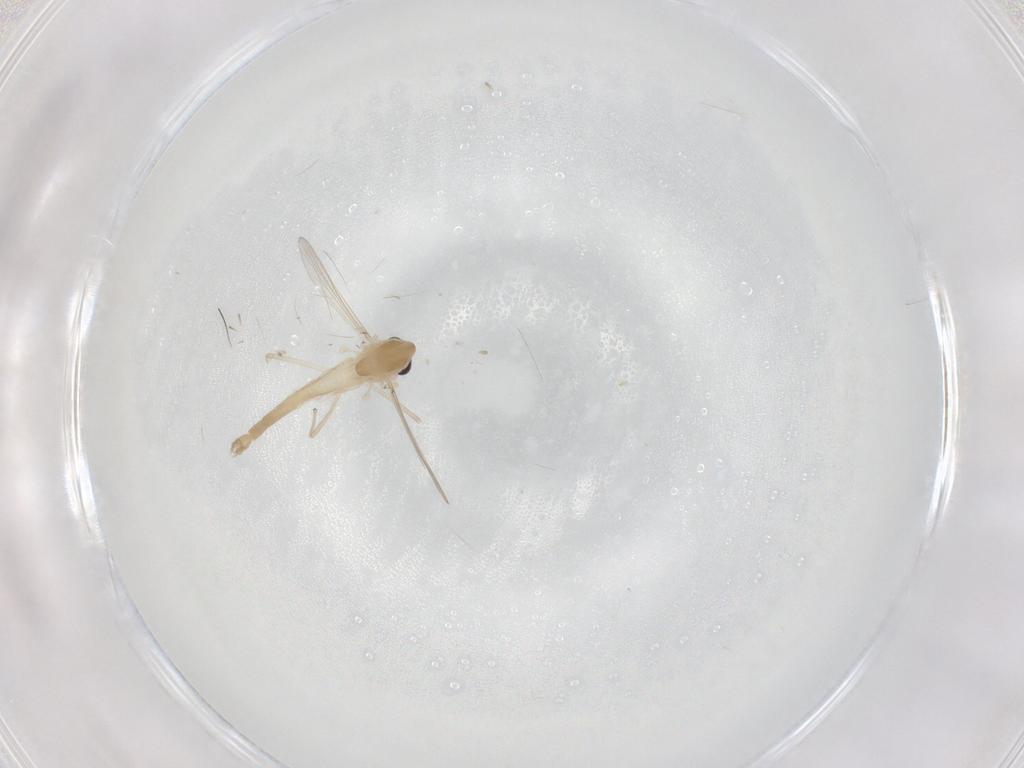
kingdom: Animalia
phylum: Arthropoda
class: Insecta
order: Diptera
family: Chironomidae
